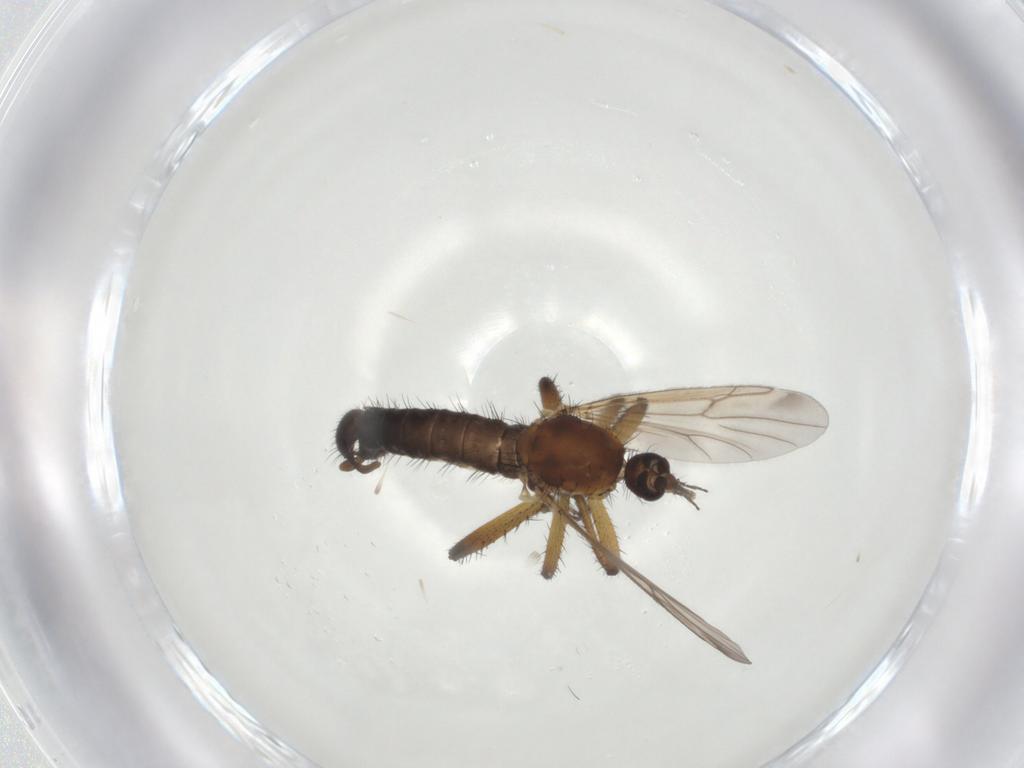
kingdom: Animalia
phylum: Arthropoda
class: Insecta
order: Diptera
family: Ceratopogonidae
